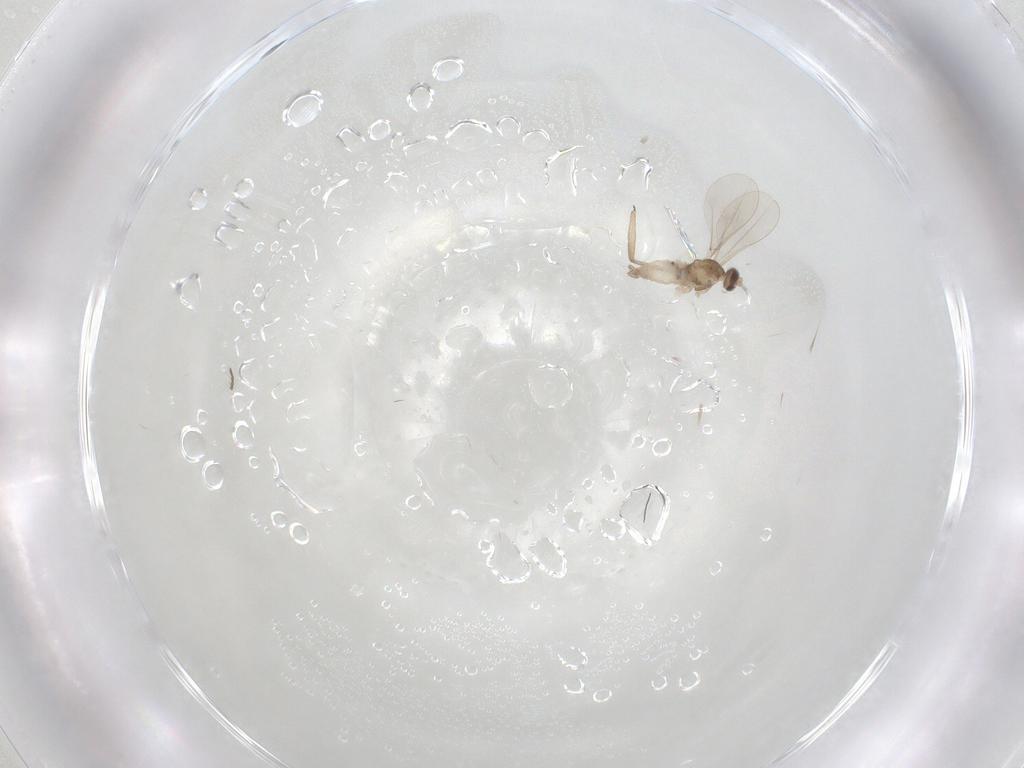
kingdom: Animalia
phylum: Arthropoda
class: Insecta
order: Diptera
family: Cecidomyiidae
